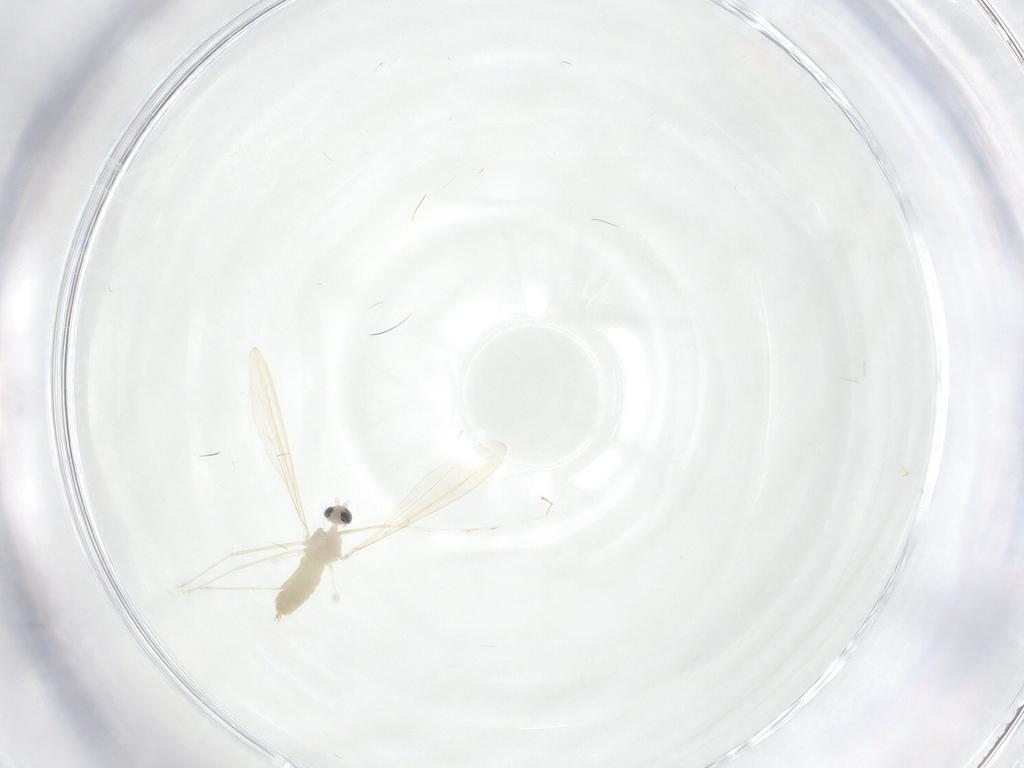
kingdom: Animalia
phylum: Arthropoda
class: Insecta
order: Diptera
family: Cecidomyiidae
